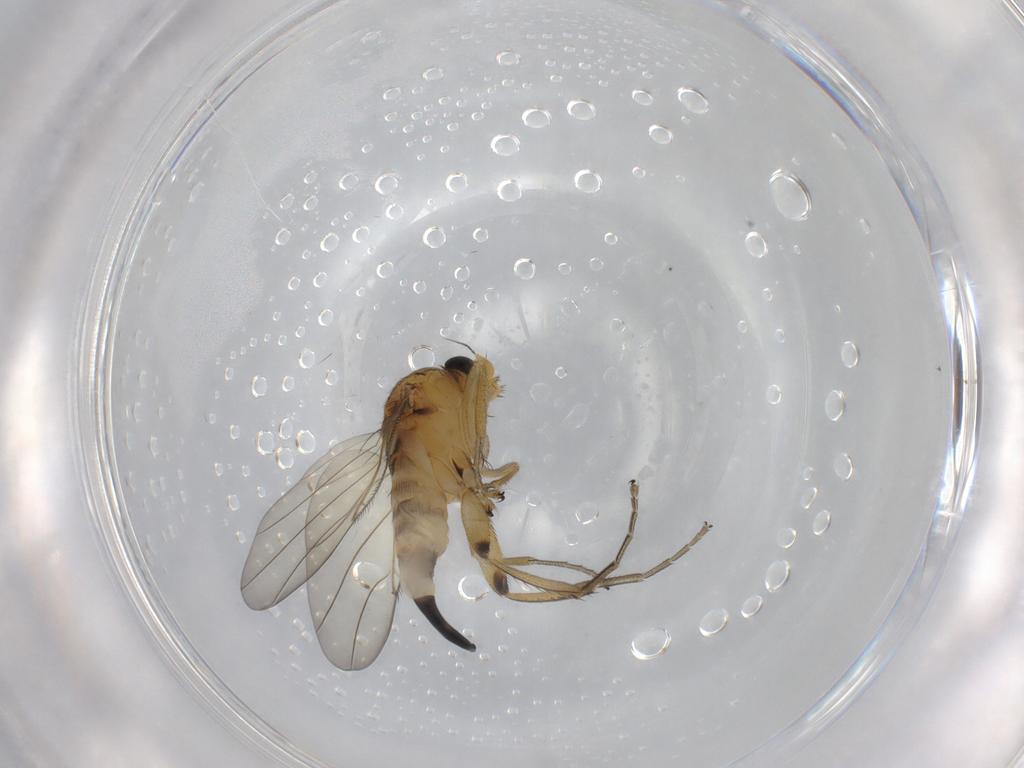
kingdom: Animalia
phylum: Arthropoda
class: Insecta
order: Diptera
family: Phoridae
